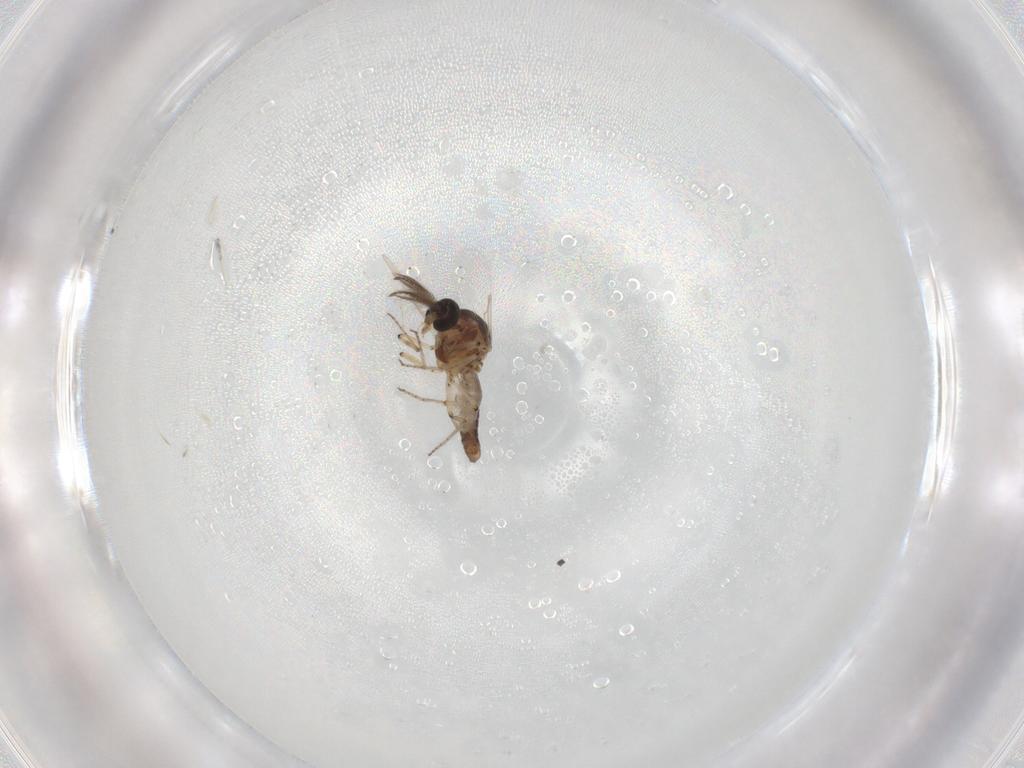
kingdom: Animalia
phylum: Arthropoda
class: Insecta
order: Diptera
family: Ceratopogonidae
